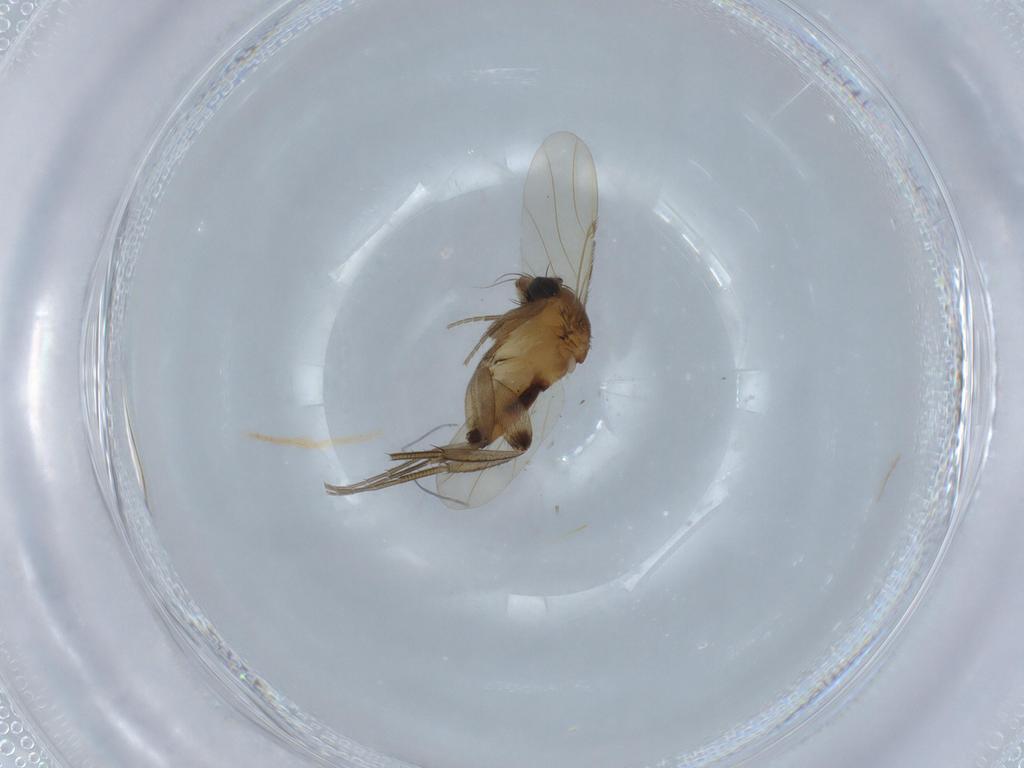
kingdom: Animalia
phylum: Arthropoda
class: Insecta
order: Diptera
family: Phoridae
